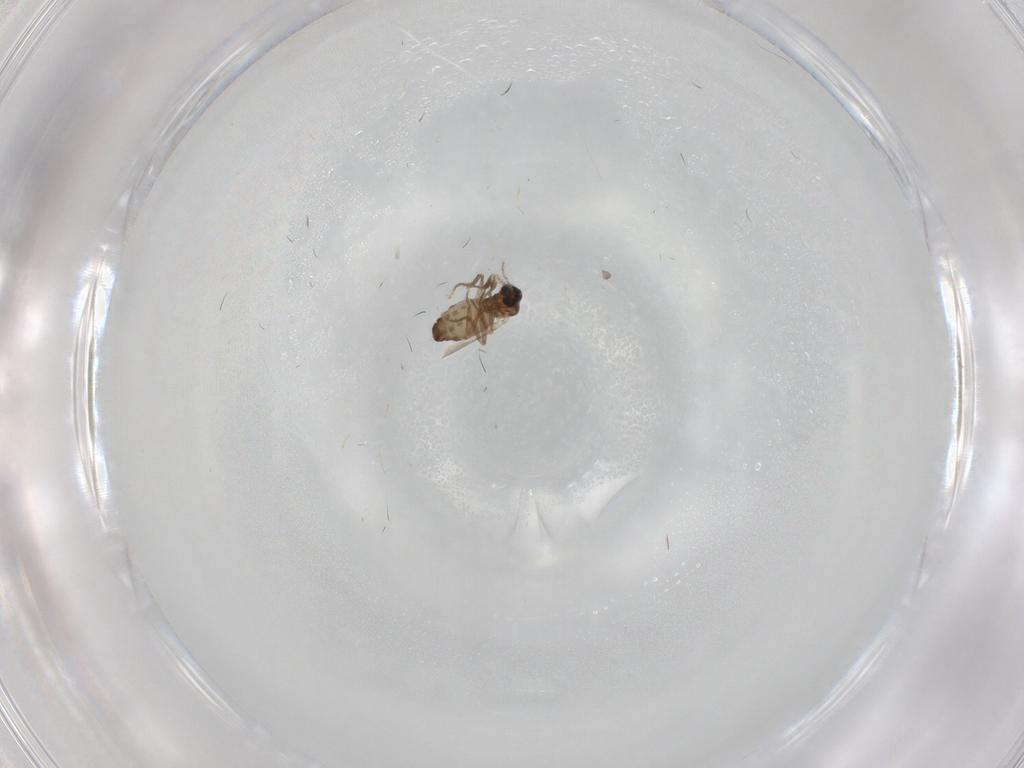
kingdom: Animalia
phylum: Arthropoda
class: Insecta
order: Diptera
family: Ceratopogonidae
